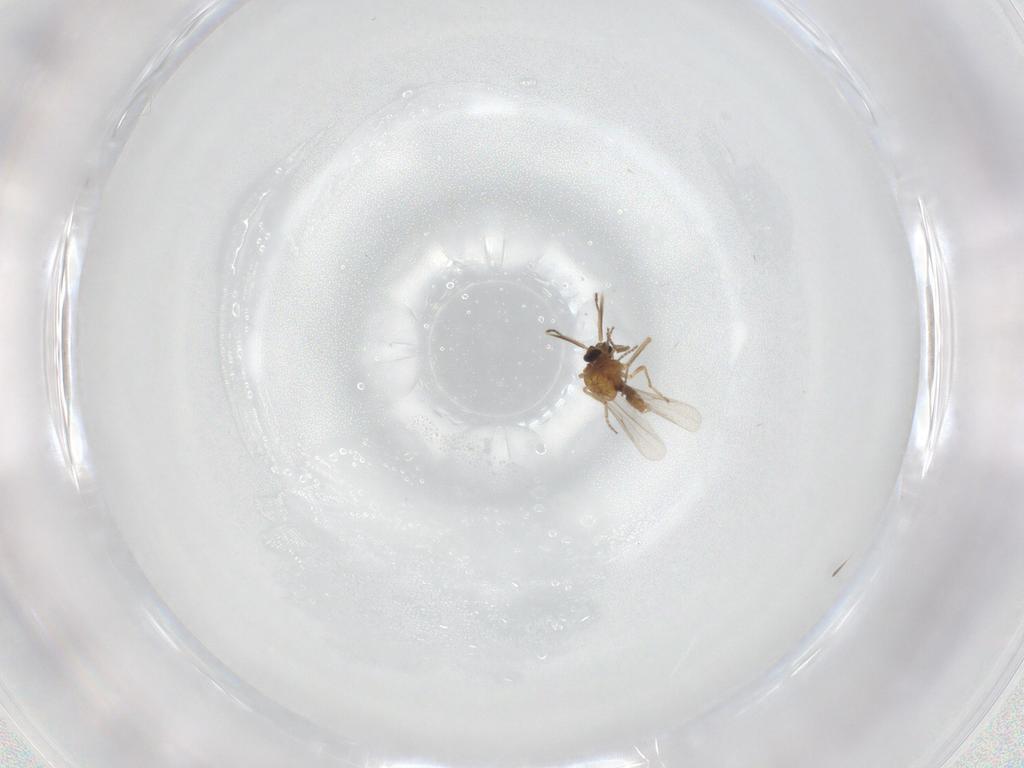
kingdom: Animalia
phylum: Arthropoda
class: Insecta
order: Diptera
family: Ceratopogonidae
